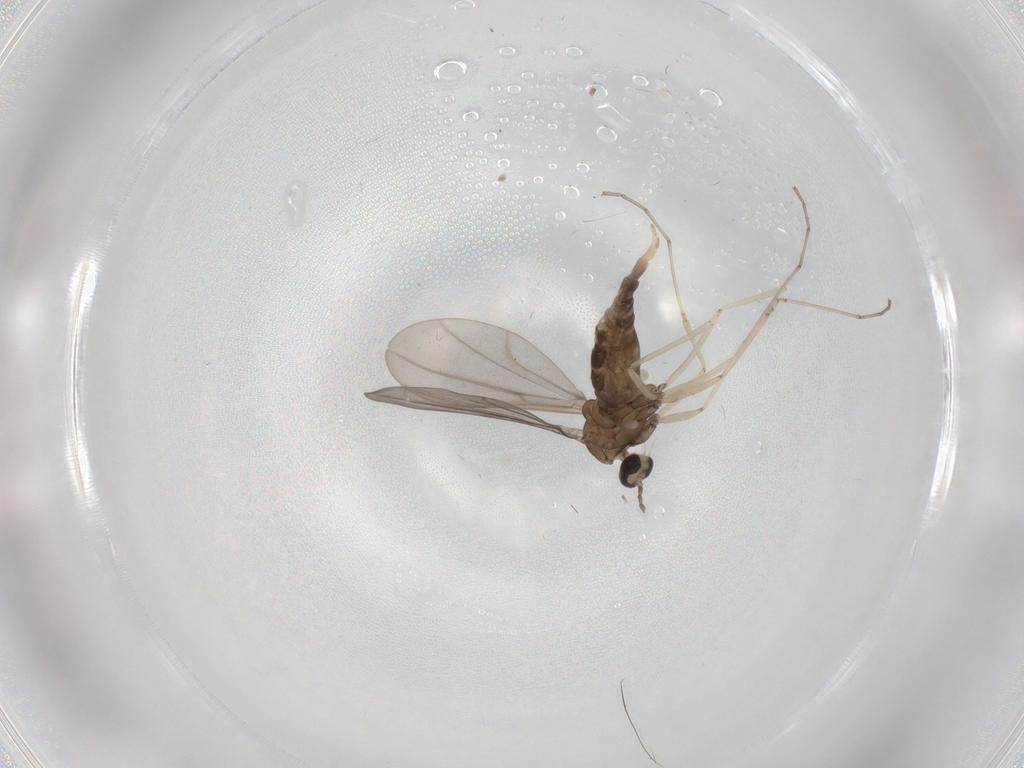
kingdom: Animalia
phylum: Arthropoda
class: Insecta
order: Diptera
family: Cecidomyiidae
